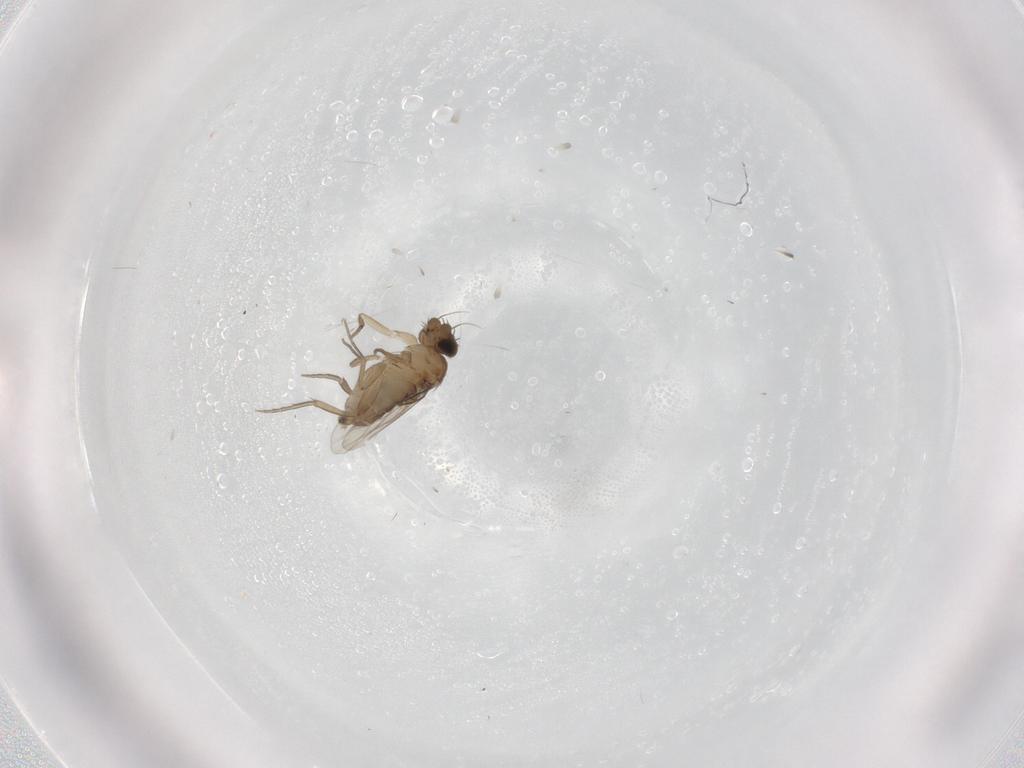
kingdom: Animalia
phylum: Arthropoda
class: Insecta
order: Diptera
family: Phoridae
